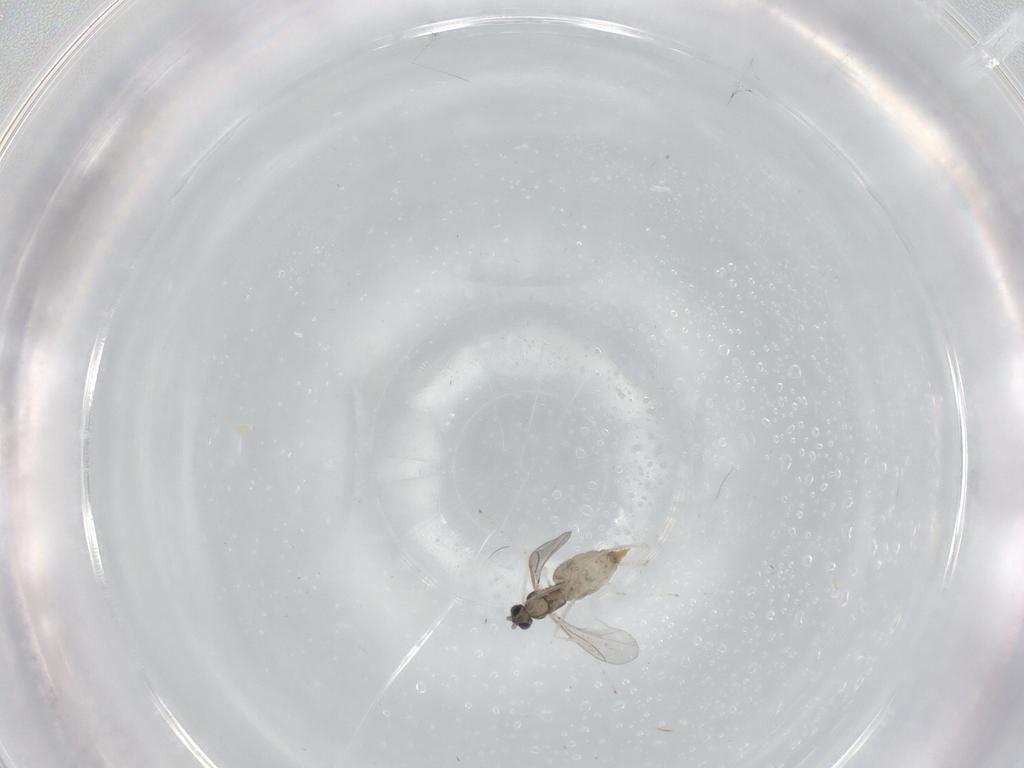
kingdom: Animalia
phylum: Arthropoda
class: Insecta
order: Diptera
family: Cecidomyiidae
